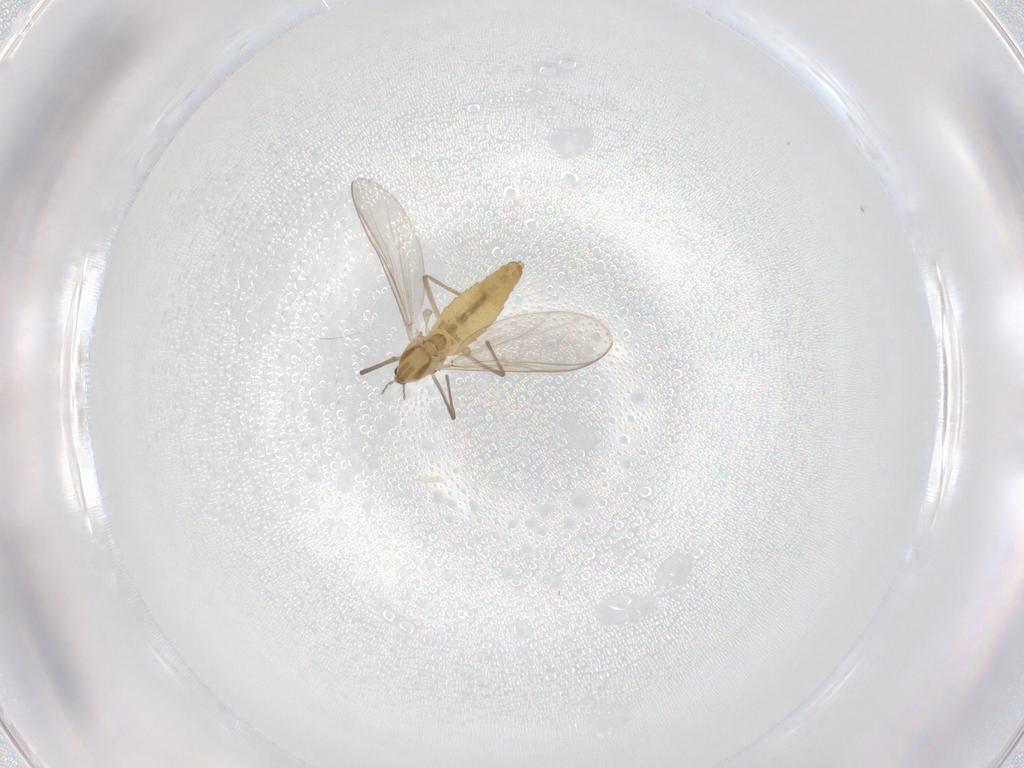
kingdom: Animalia
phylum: Arthropoda
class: Insecta
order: Diptera
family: Chironomidae
